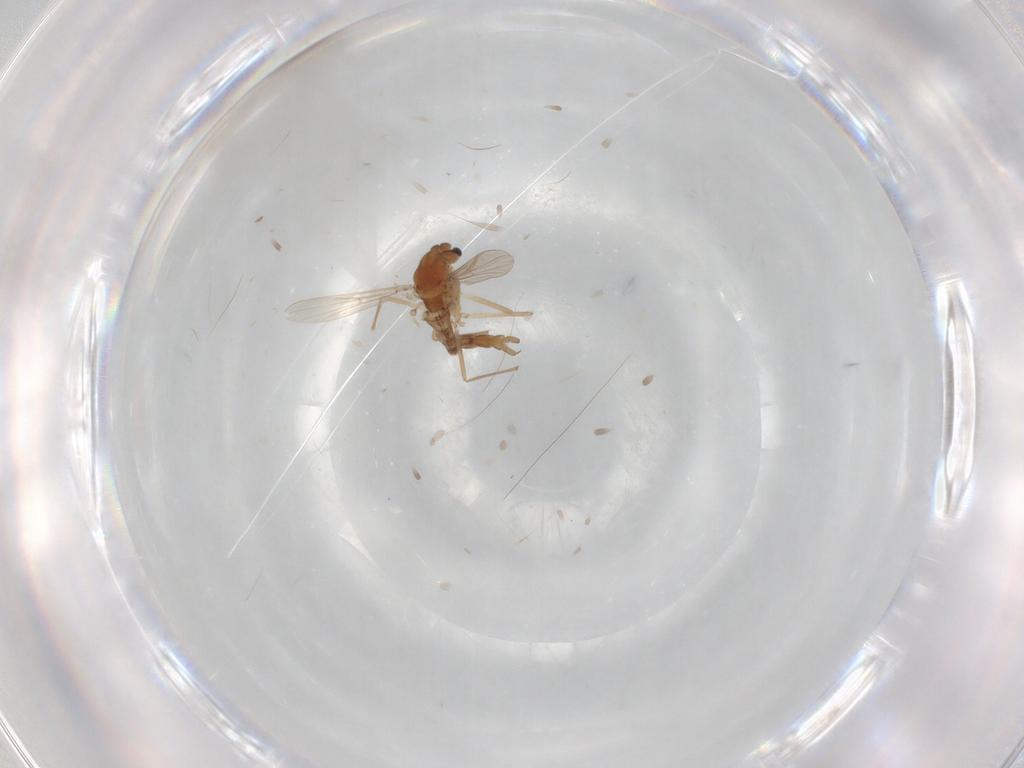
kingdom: Animalia
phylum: Arthropoda
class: Insecta
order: Diptera
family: Chironomidae
